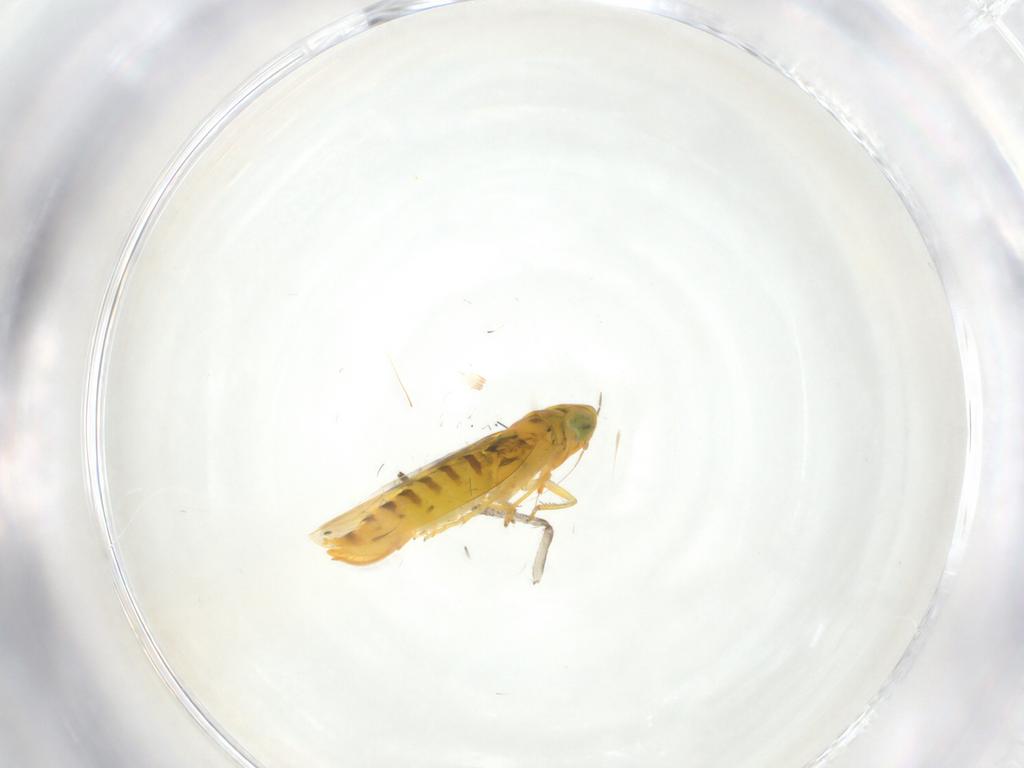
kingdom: Animalia
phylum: Arthropoda
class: Insecta
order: Hemiptera
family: Cicadellidae
